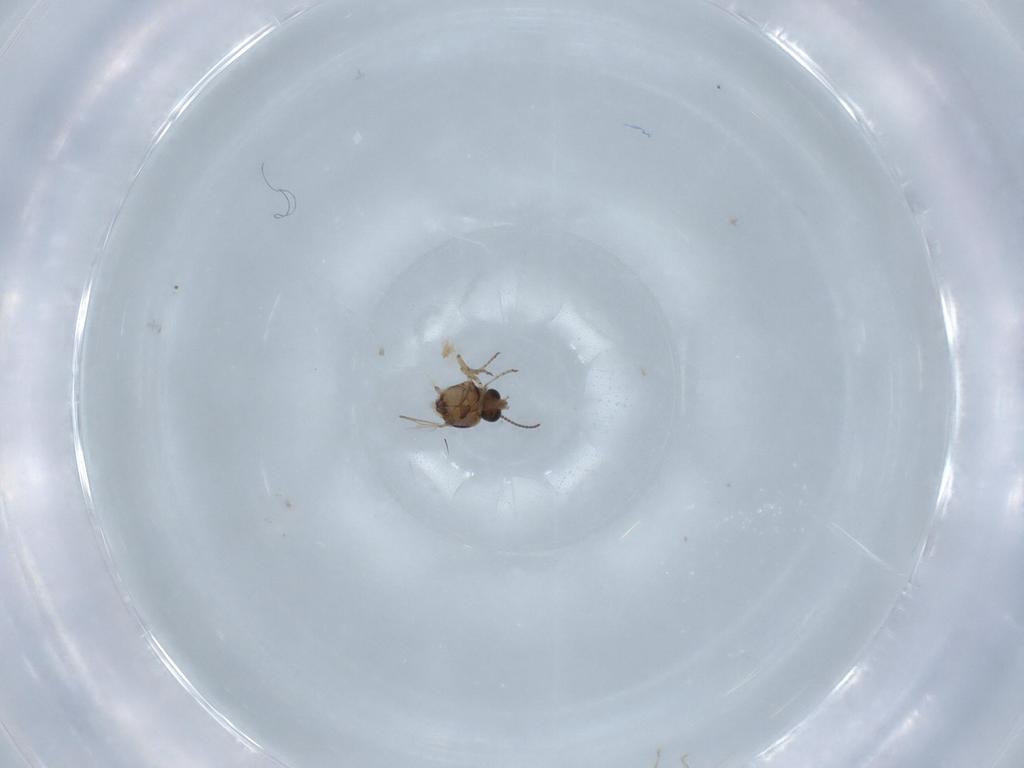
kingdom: Animalia
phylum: Arthropoda
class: Insecta
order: Diptera
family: Ceratopogonidae
